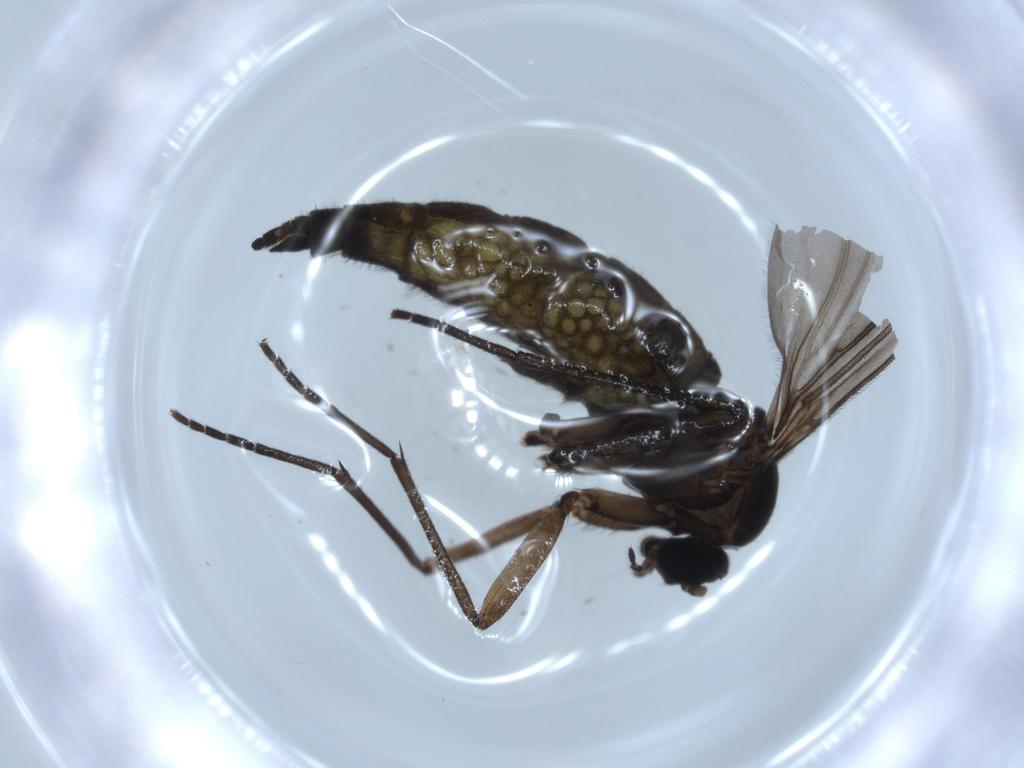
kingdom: Animalia
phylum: Arthropoda
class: Insecta
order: Diptera
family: Sciaridae
